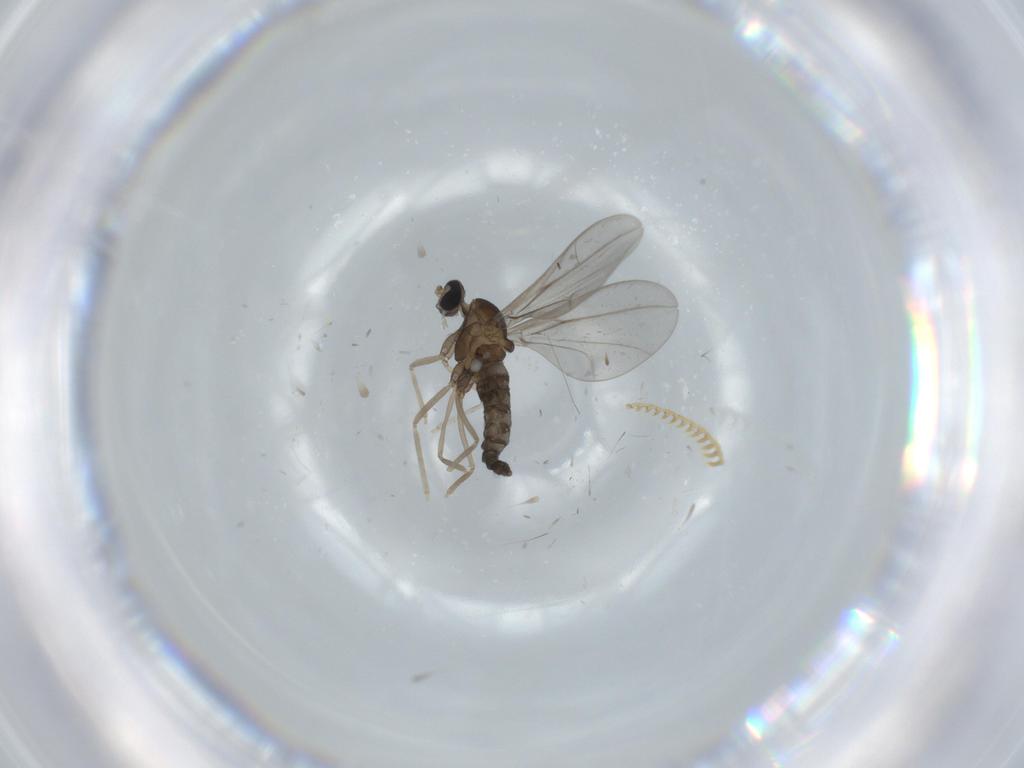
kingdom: Animalia
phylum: Arthropoda
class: Insecta
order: Diptera
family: Cecidomyiidae
